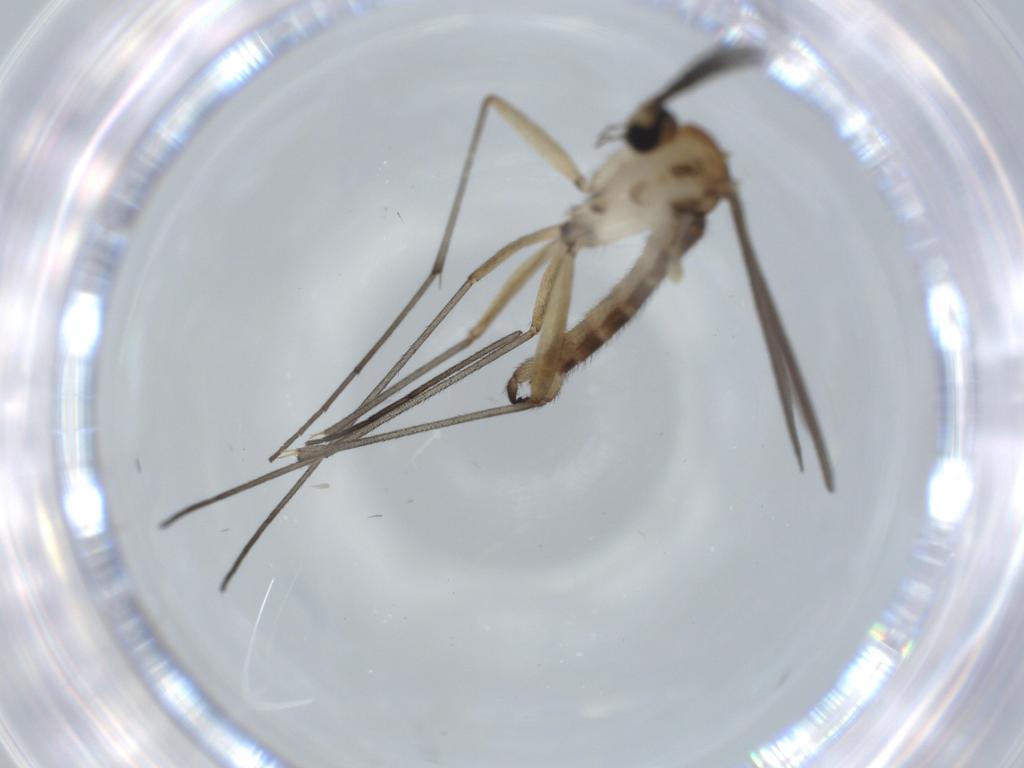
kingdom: Animalia
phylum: Arthropoda
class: Insecta
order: Diptera
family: Sciaridae
